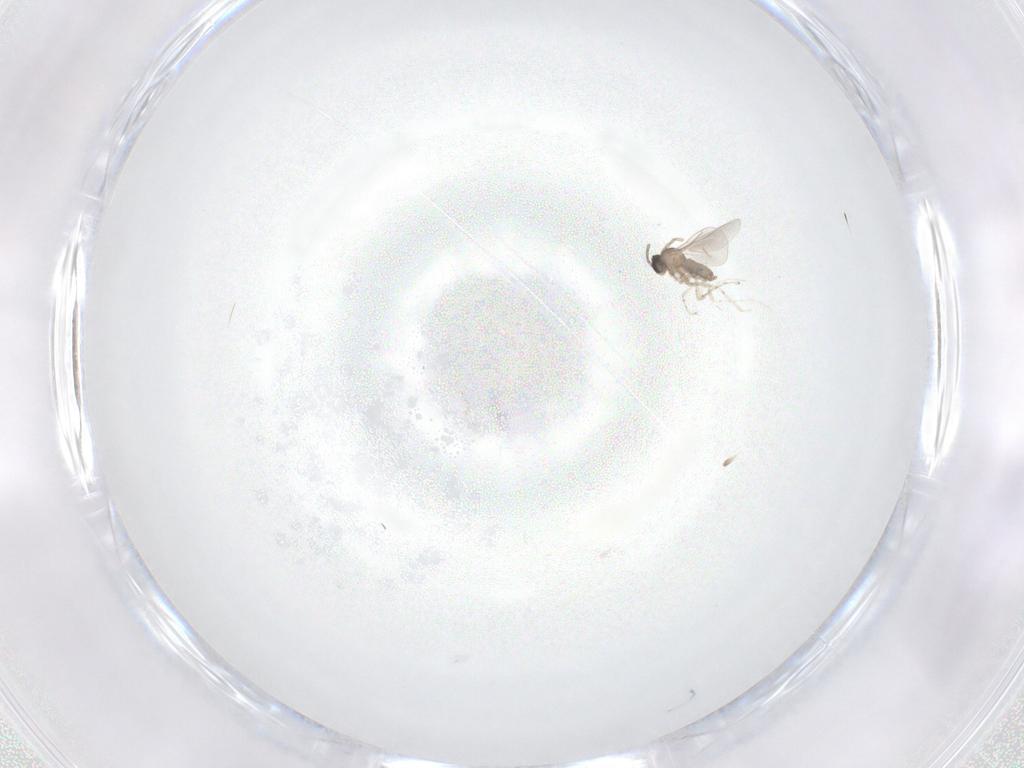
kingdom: Animalia
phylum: Arthropoda
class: Insecta
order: Diptera
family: Cecidomyiidae
